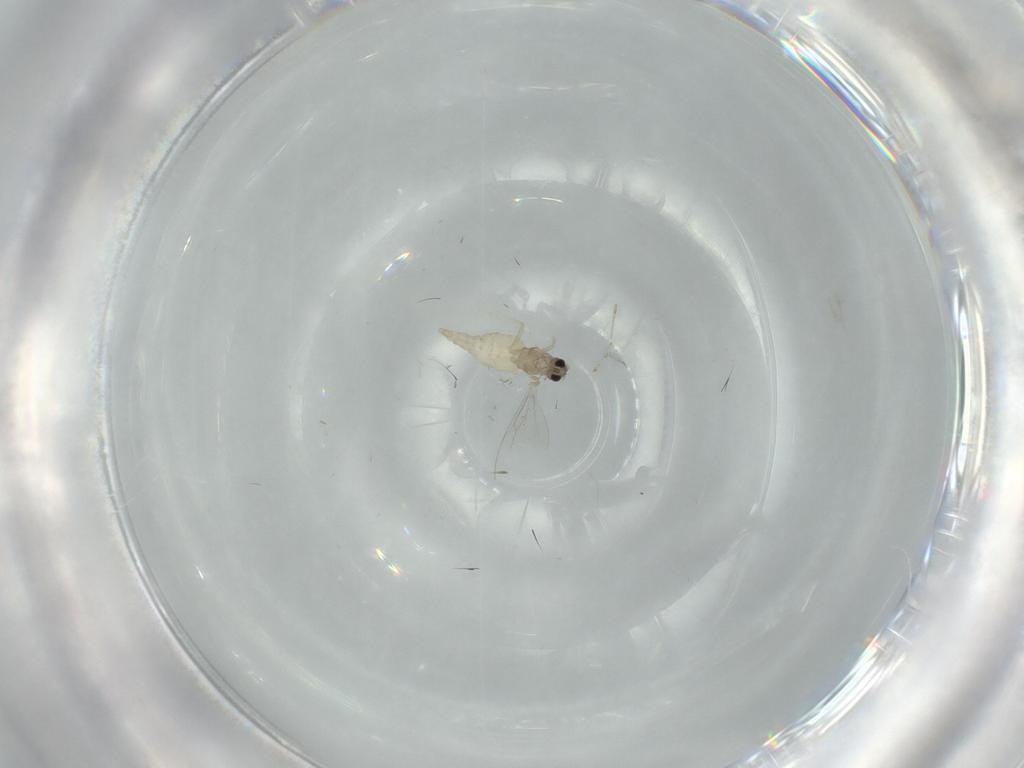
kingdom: Animalia
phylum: Arthropoda
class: Insecta
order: Diptera
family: Cecidomyiidae
